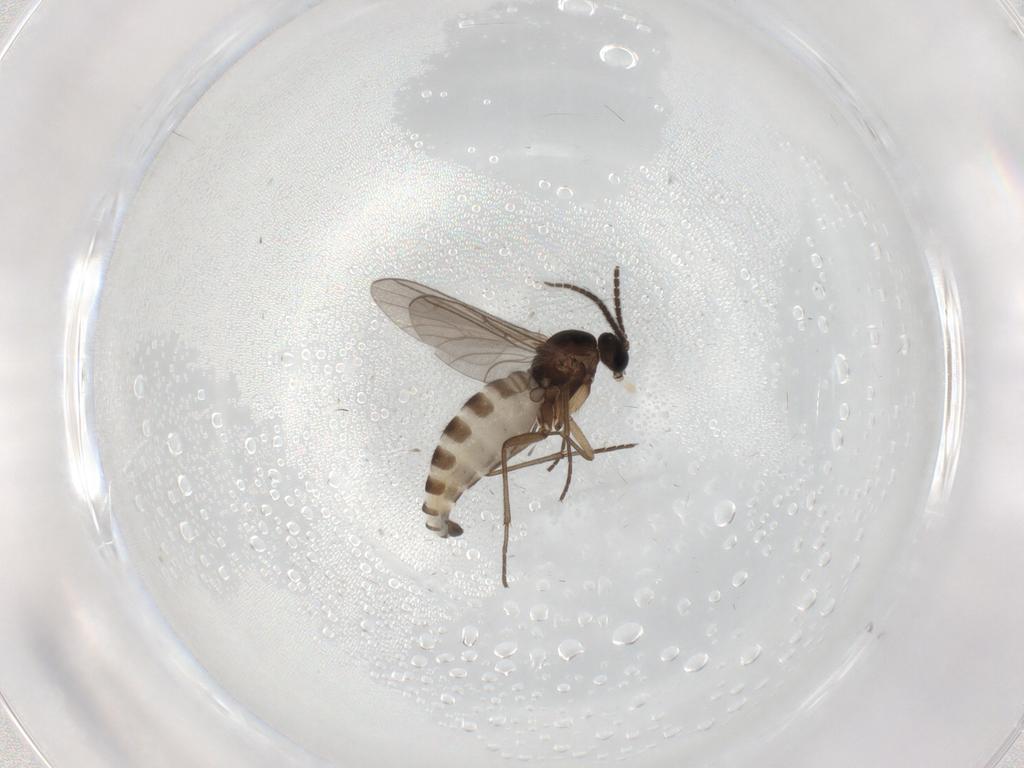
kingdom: Animalia
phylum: Arthropoda
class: Insecta
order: Diptera
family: Sciaridae
